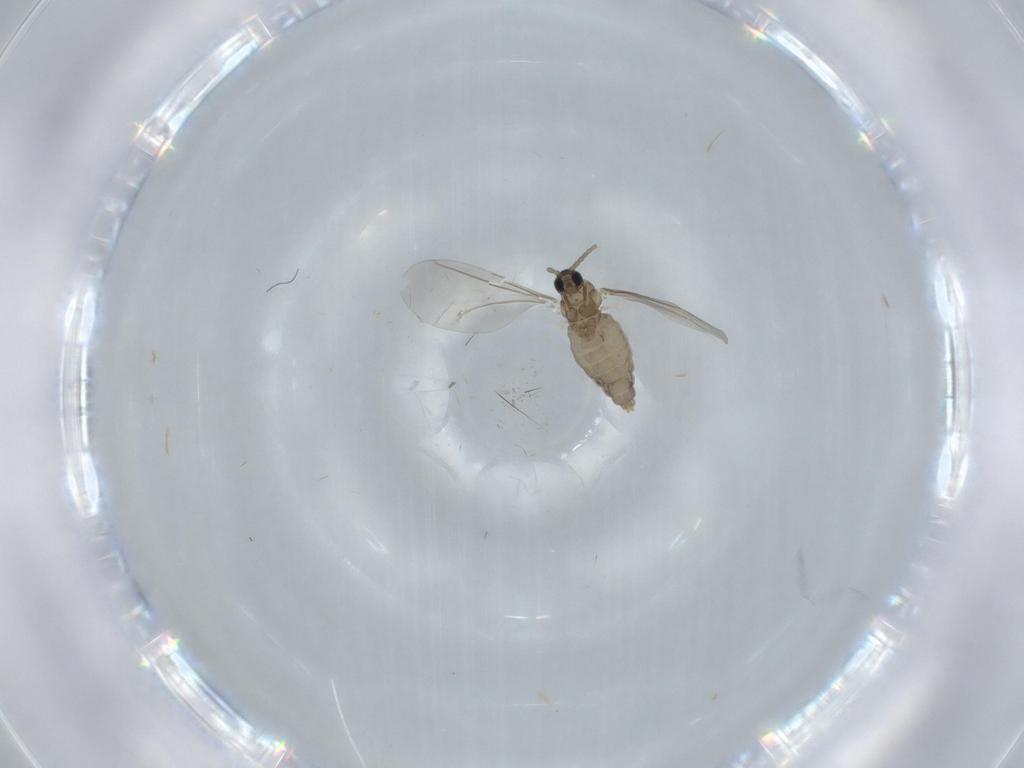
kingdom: Animalia
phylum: Arthropoda
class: Insecta
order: Diptera
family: Cecidomyiidae
